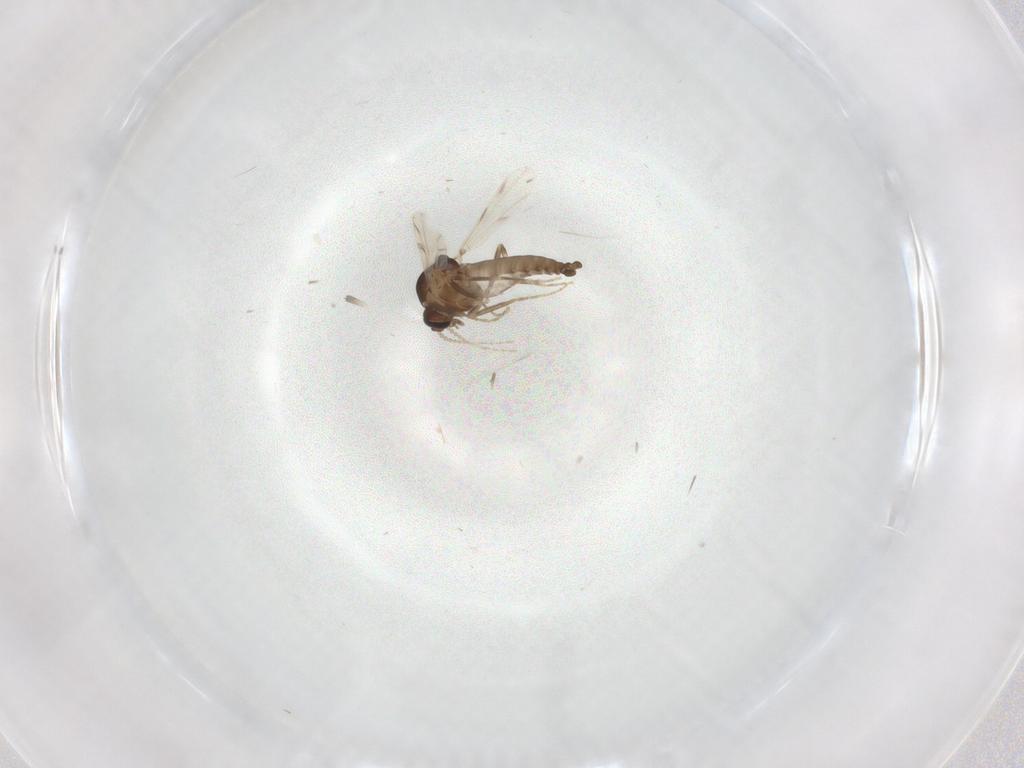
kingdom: Animalia
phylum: Arthropoda
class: Insecta
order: Diptera
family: Ceratopogonidae
